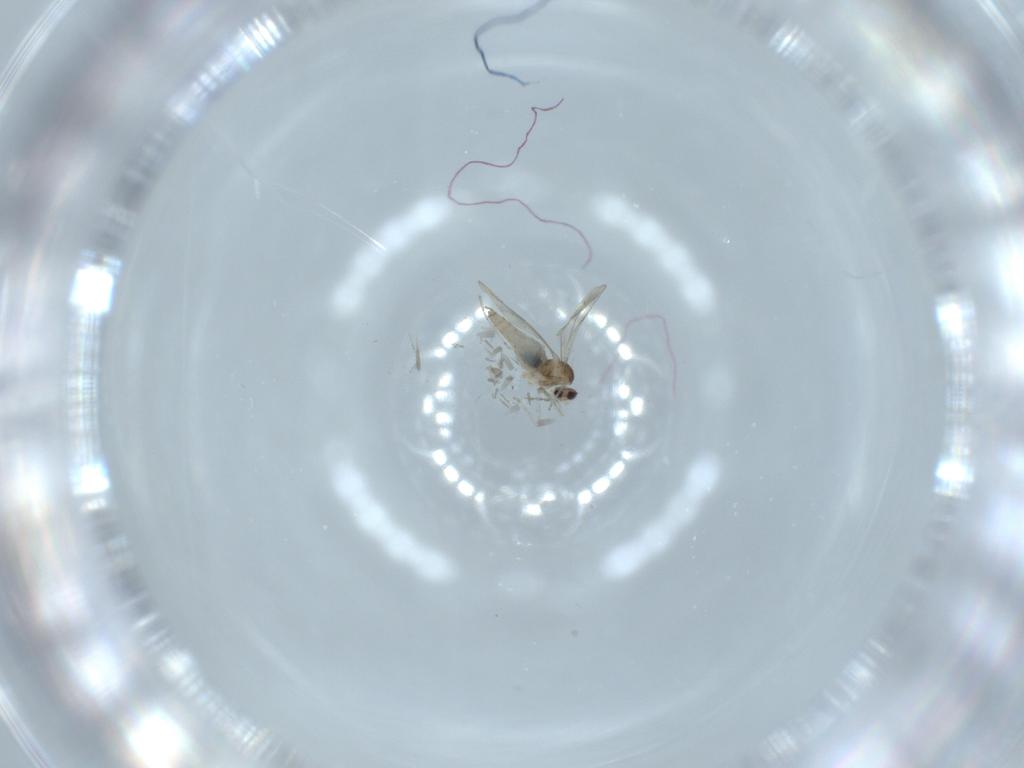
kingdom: Animalia
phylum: Arthropoda
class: Insecta
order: Diptera
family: Cecidomyiidae
